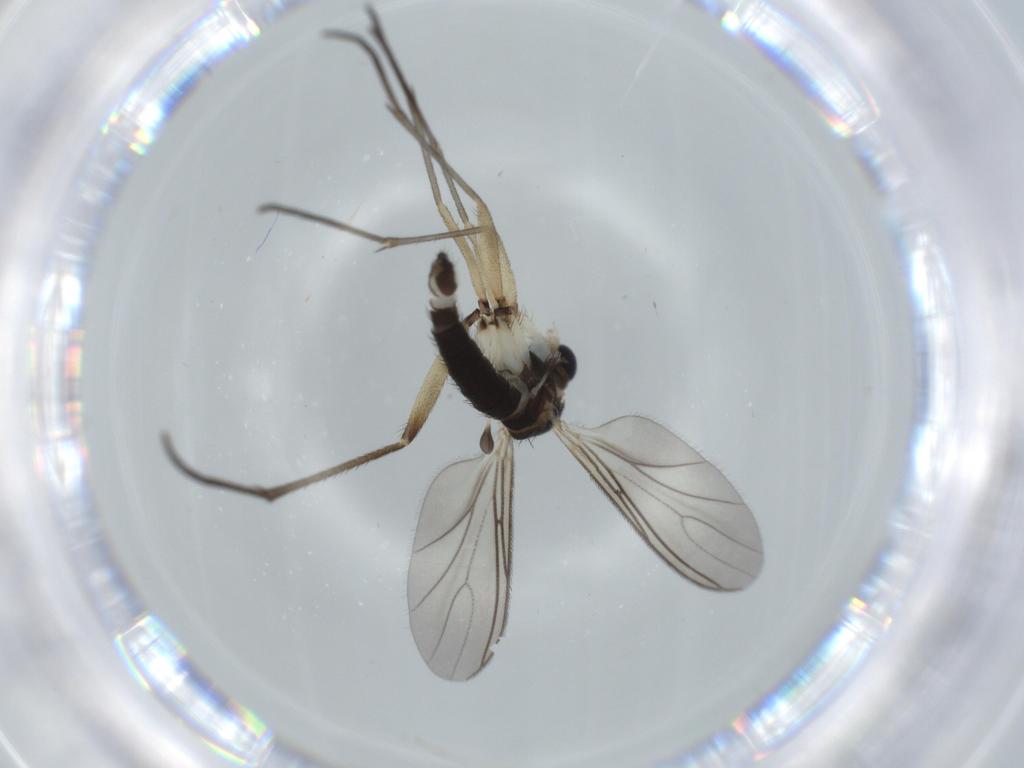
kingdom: Animalia
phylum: Arthropoda
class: Insecta
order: Diptera
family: Sciaridae
